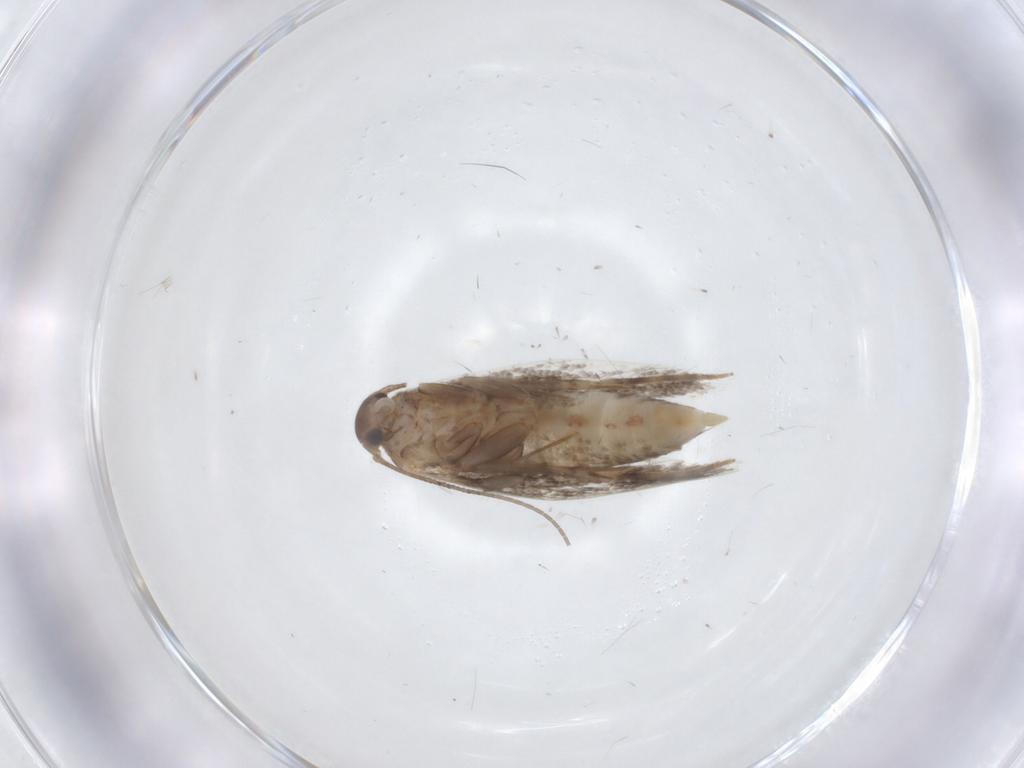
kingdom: Animalia
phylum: Arthropoda
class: Insecta
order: Lepidoptera
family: Elachistidae
